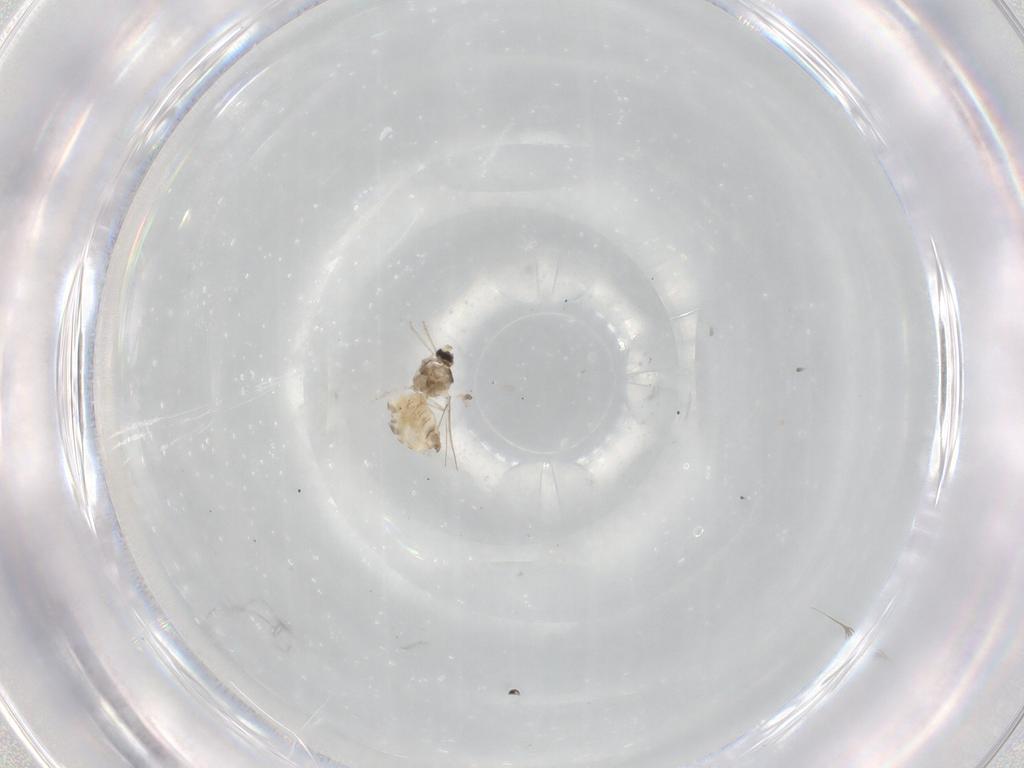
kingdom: Animalia
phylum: Arthropoda
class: Insecta
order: Diptera
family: Cecidomyiidae
